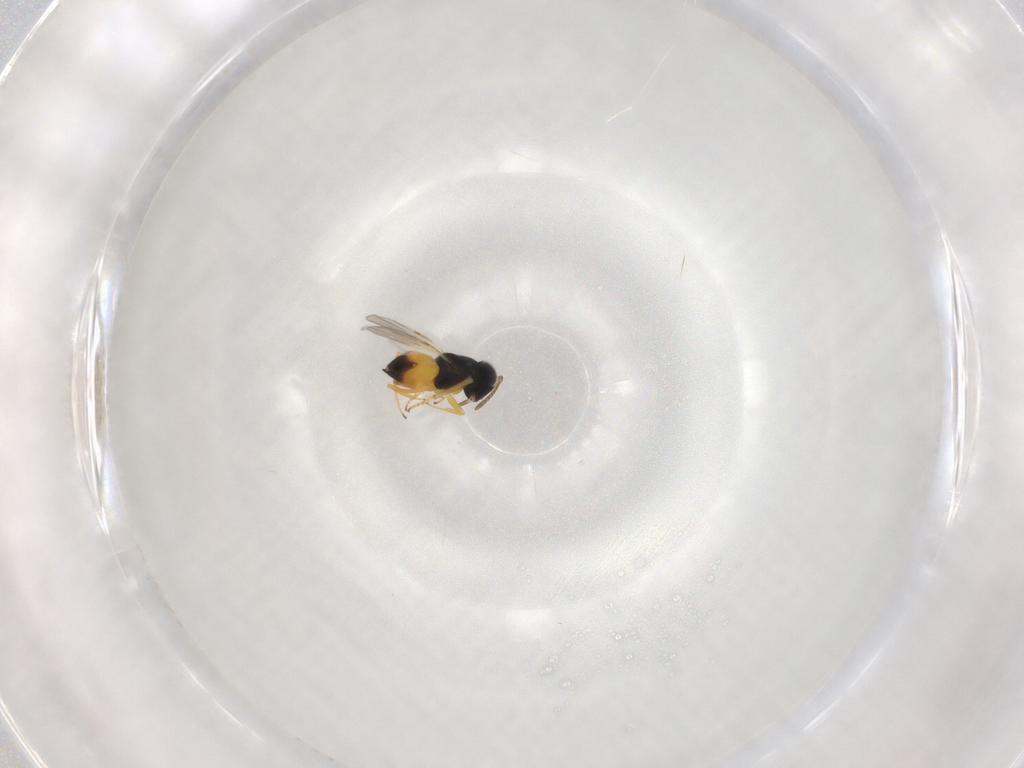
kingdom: Animalia
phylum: Arthropoda
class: Insecta
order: Hymenoptera
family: Encyrtidae
